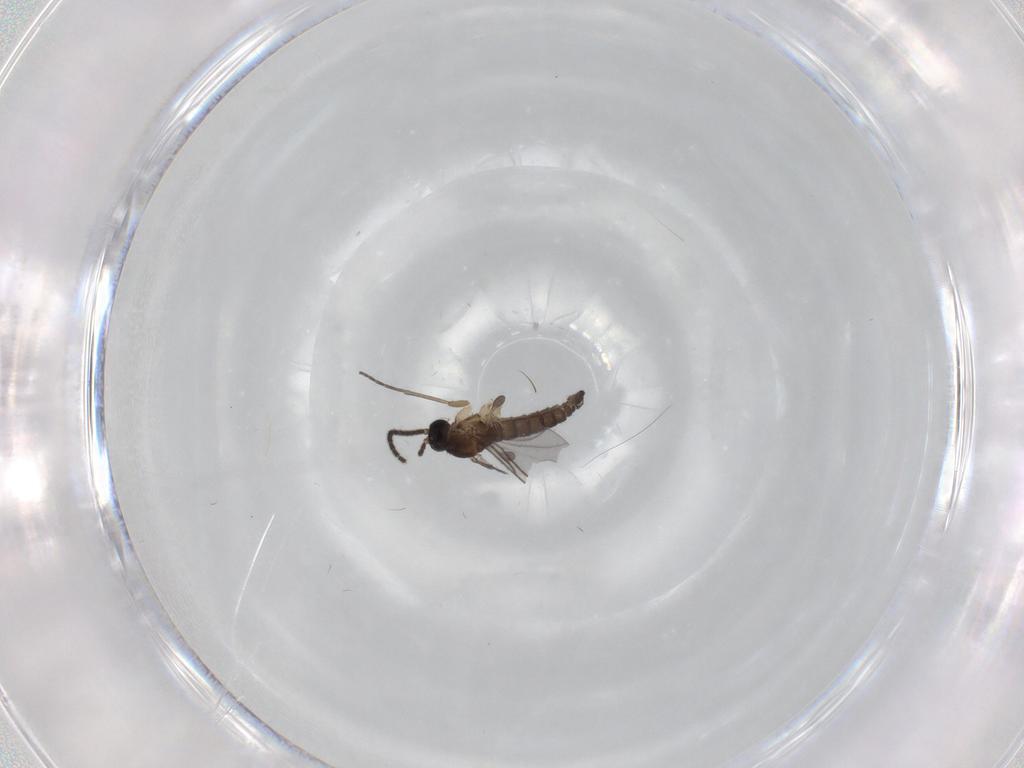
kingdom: Animalia
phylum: Arthropoda
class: Insecta
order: Diptera
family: Sciaridae
